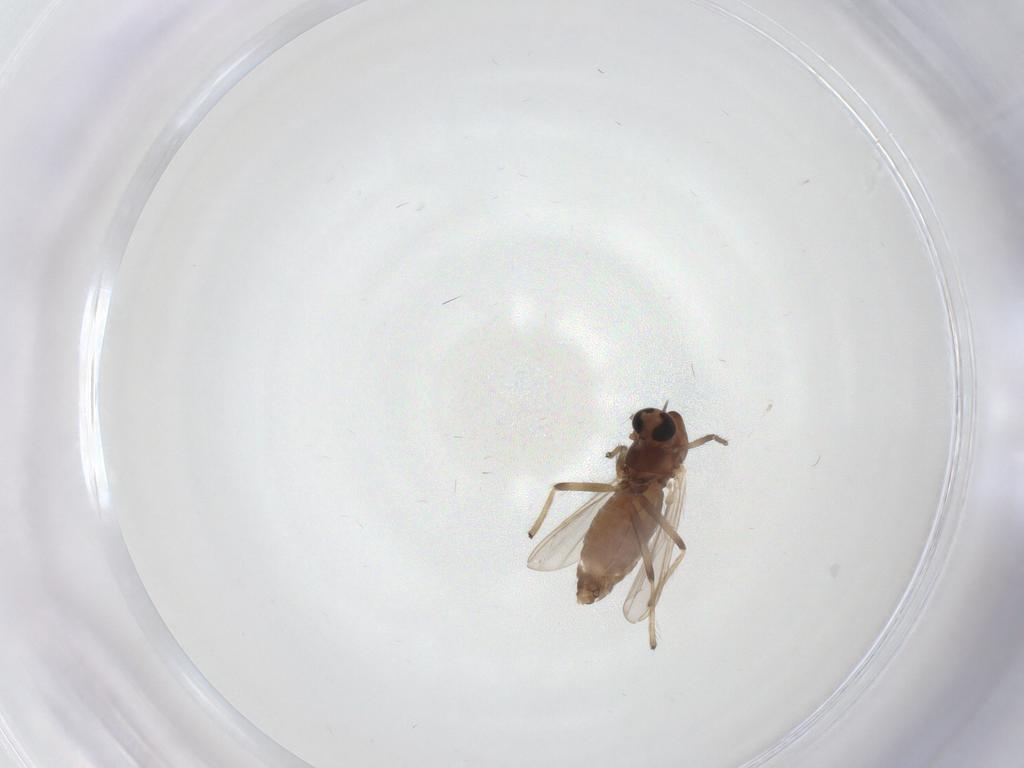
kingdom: Animalia
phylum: Arthropoda
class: Insecta
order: Diptera
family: Chironomidae
